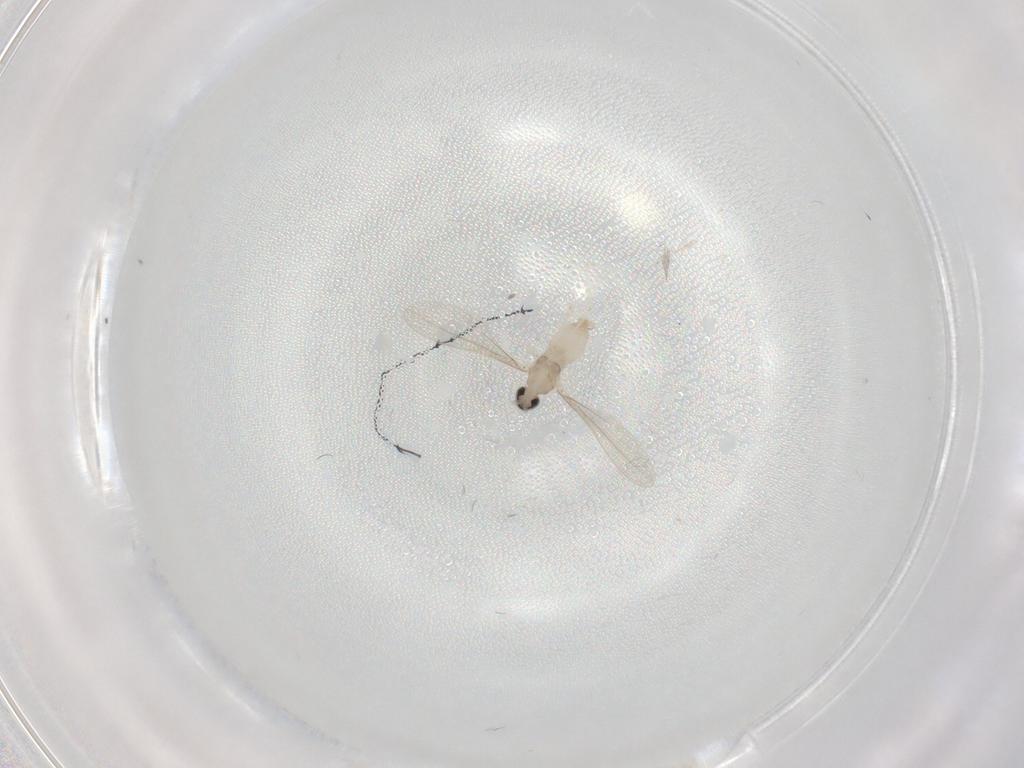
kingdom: Animalia
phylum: Arthropoda
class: Insecta
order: Diptera
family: Cecidomyiidae
